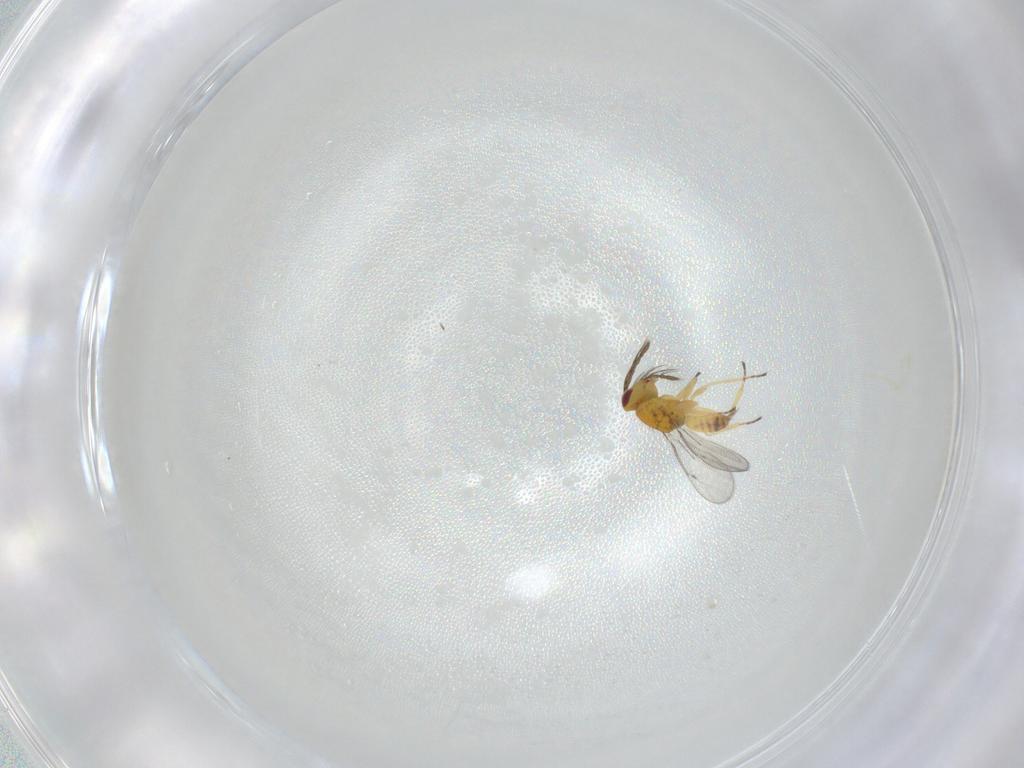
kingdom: Animalia
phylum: Arthropoda
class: Insecta
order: Hymenoptera
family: Eulophidae
